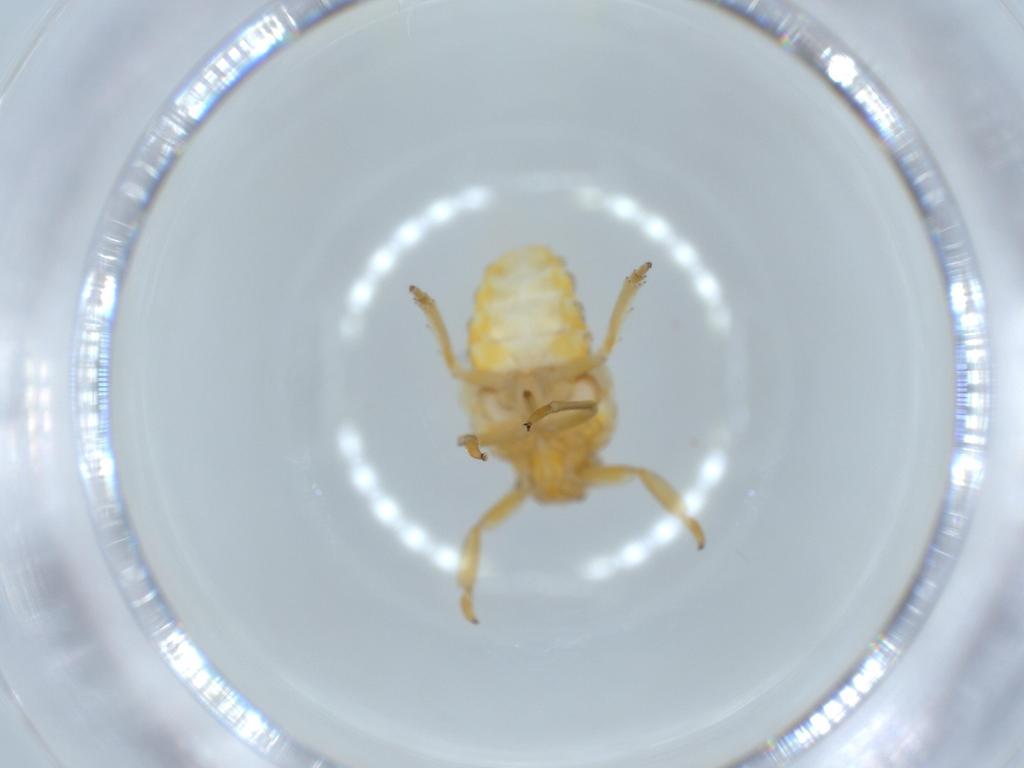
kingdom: Animalia
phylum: Arthropoda
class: Insecta
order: Hemiptera
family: Issidae
